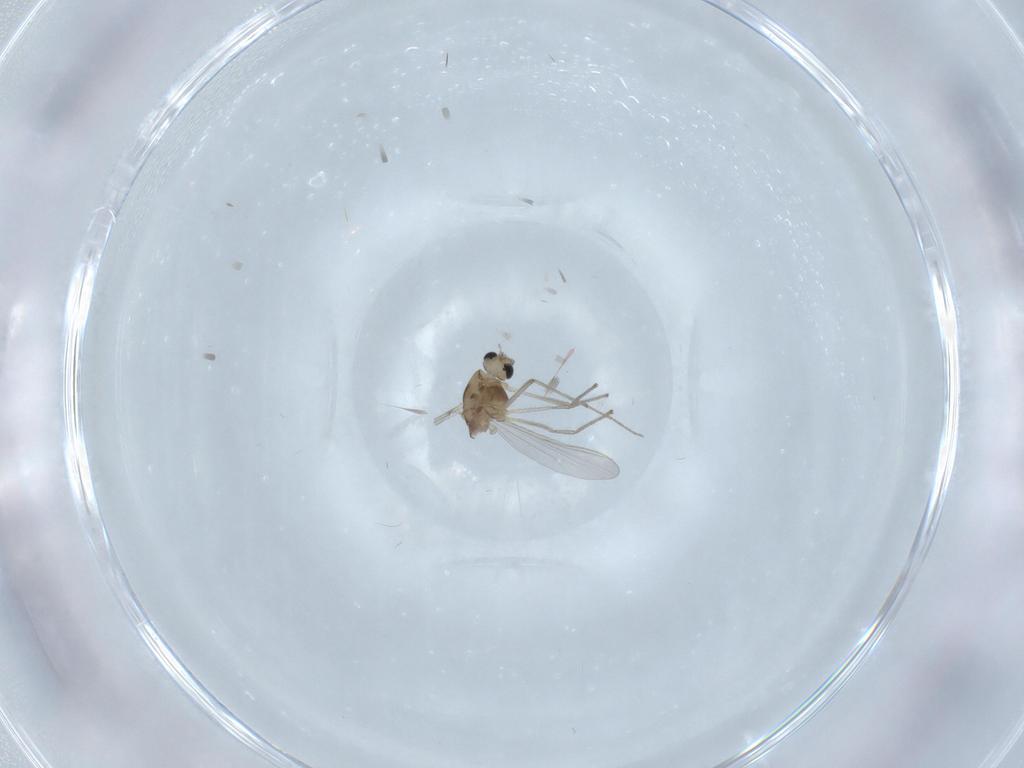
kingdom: Animalia
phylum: Arthropoda
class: Insecta
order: Diptera
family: Chironomidae
